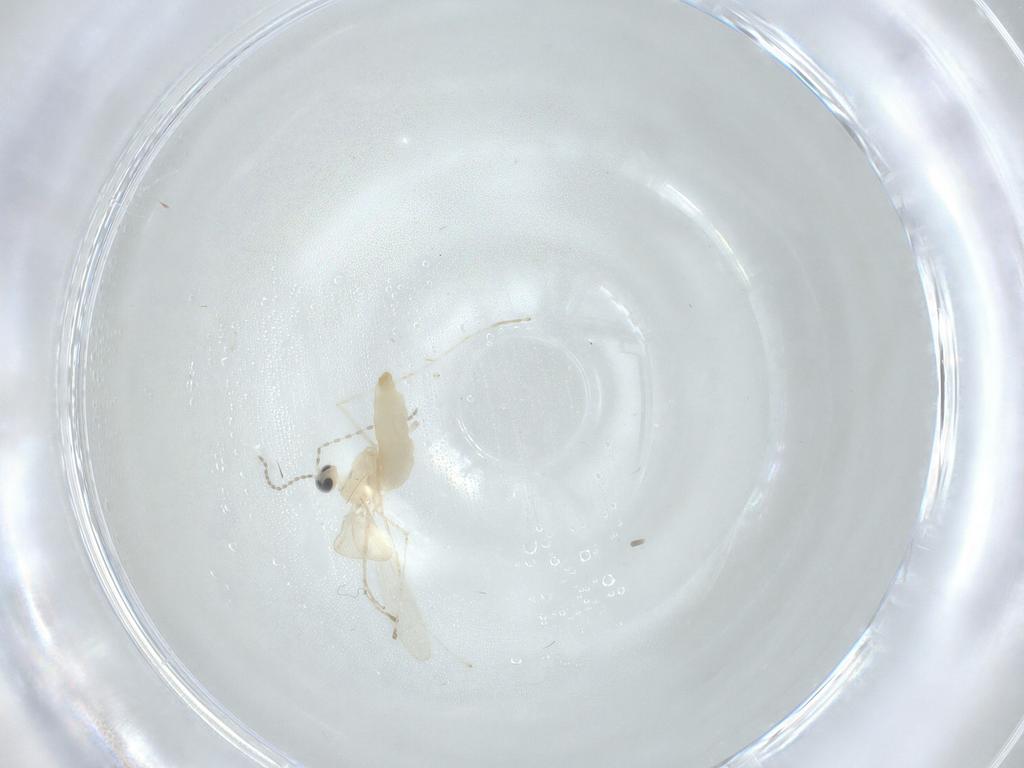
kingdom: Animalia
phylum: Arthropoda
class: Insecta
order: Diptera
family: Cecidomyiidae
